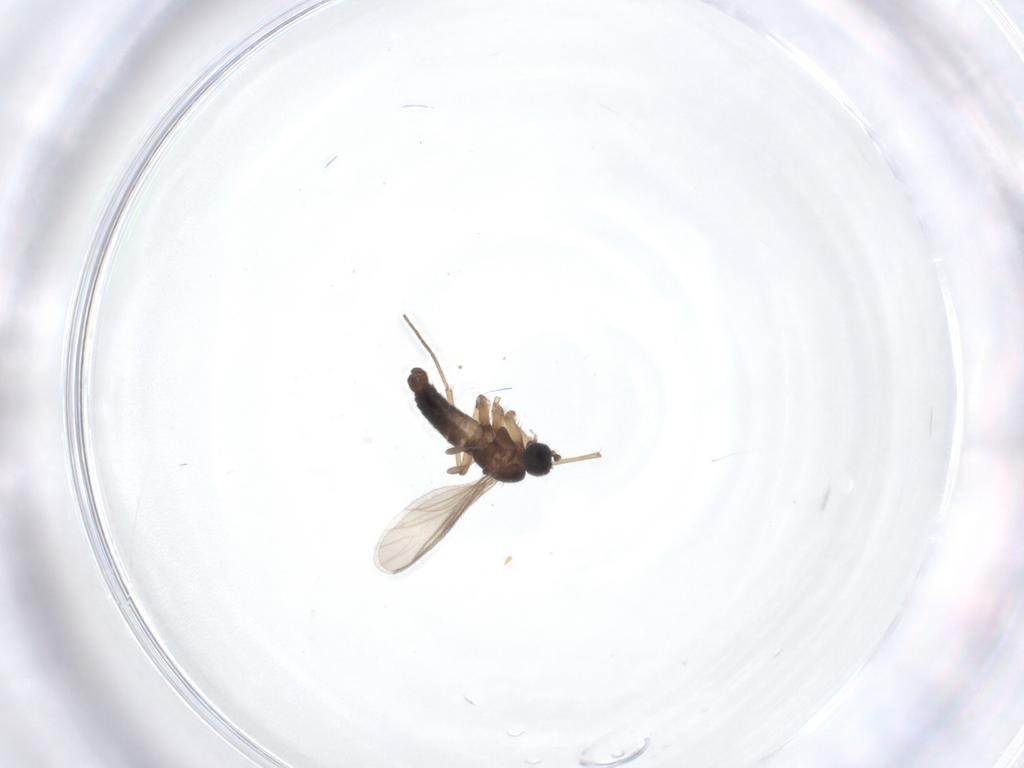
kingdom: Animalia
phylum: Arthropoda
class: Insecta
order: Diptera
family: Sciaridae
